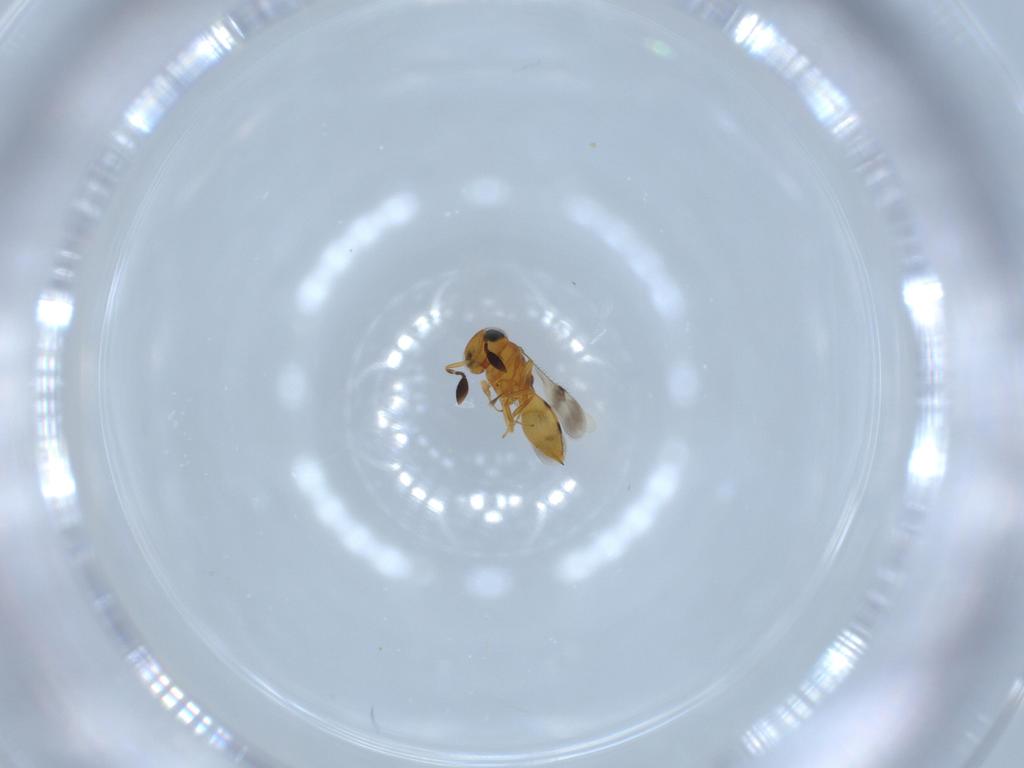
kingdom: Animalia
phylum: Arthropoda
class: Insecta
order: Hymenoptera
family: Scelionidae
